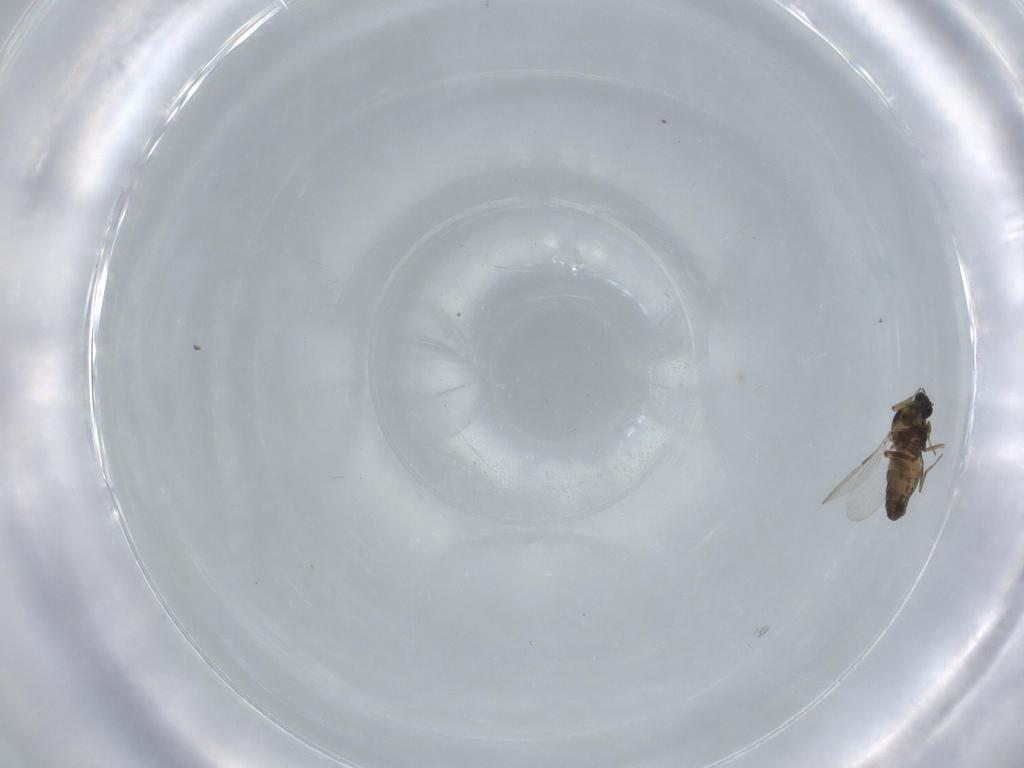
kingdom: Animalia
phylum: Arthropoda
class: Insecta
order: Diptera
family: Ceratopogonidae
